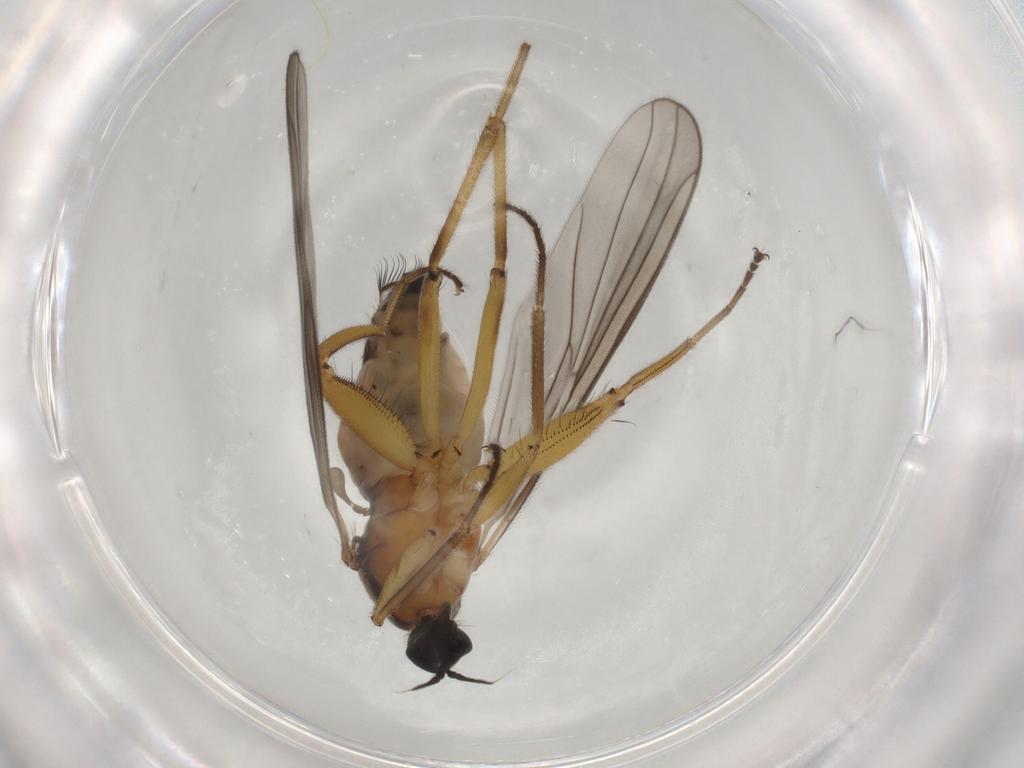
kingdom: Animalia
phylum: Arthropoda
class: Insecta
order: Diptera
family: Hybotidae
